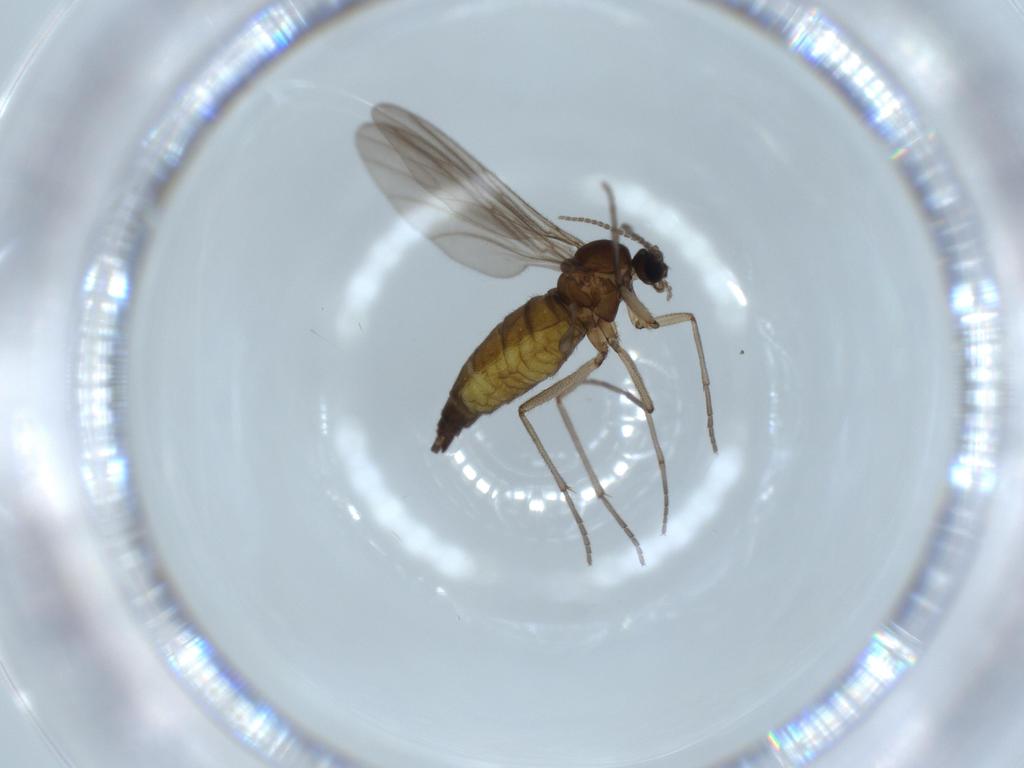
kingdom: Animalia
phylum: Arthropoda
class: Insecta
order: Diptera
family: Sciaridae
